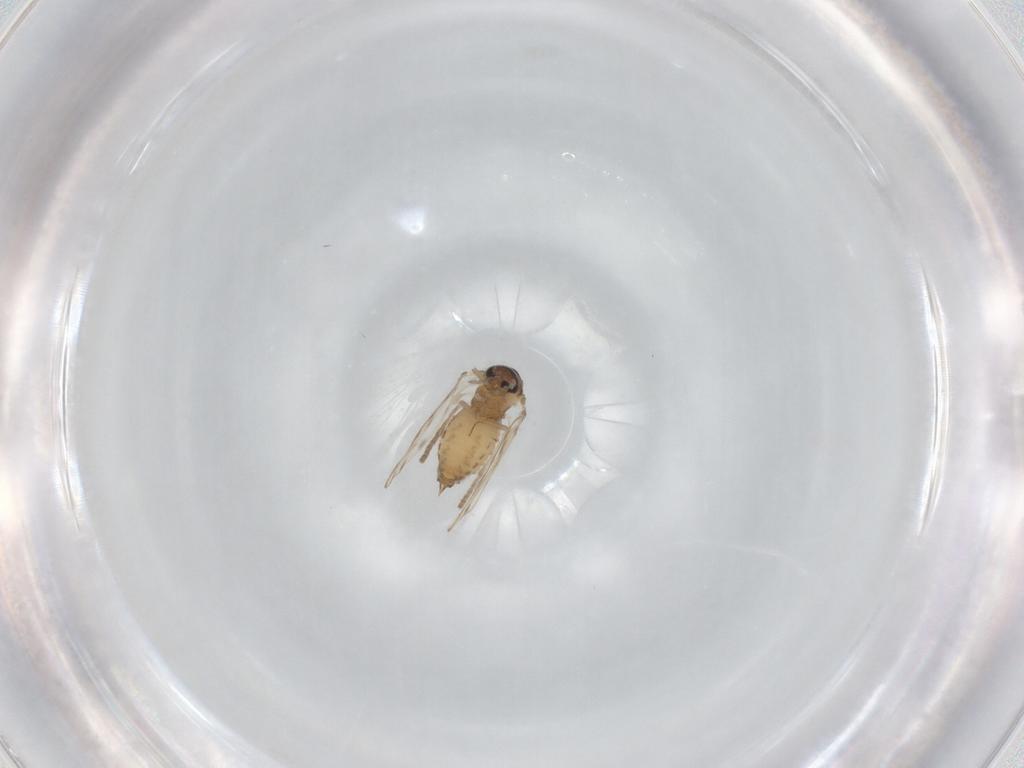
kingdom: Animalia
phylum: Arthropoda
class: Insecta
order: Diptera
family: Psychodidae
